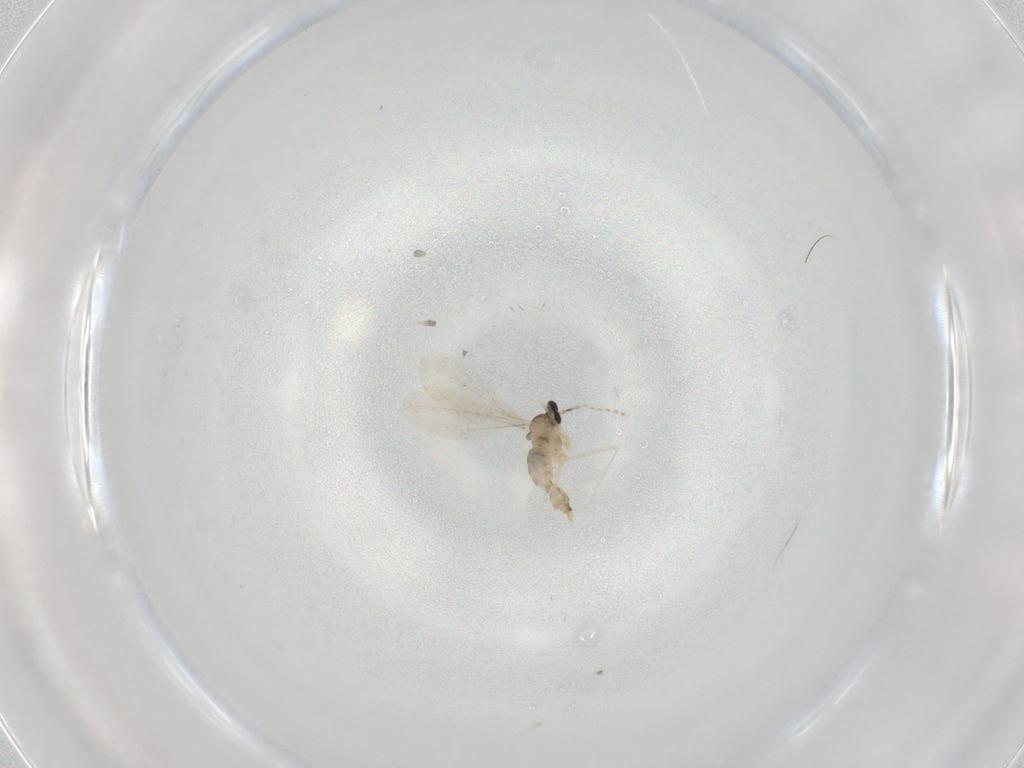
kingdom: Animalia
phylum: Arthropoda
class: Insecta
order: Diptera
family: Cecidomyiidae
